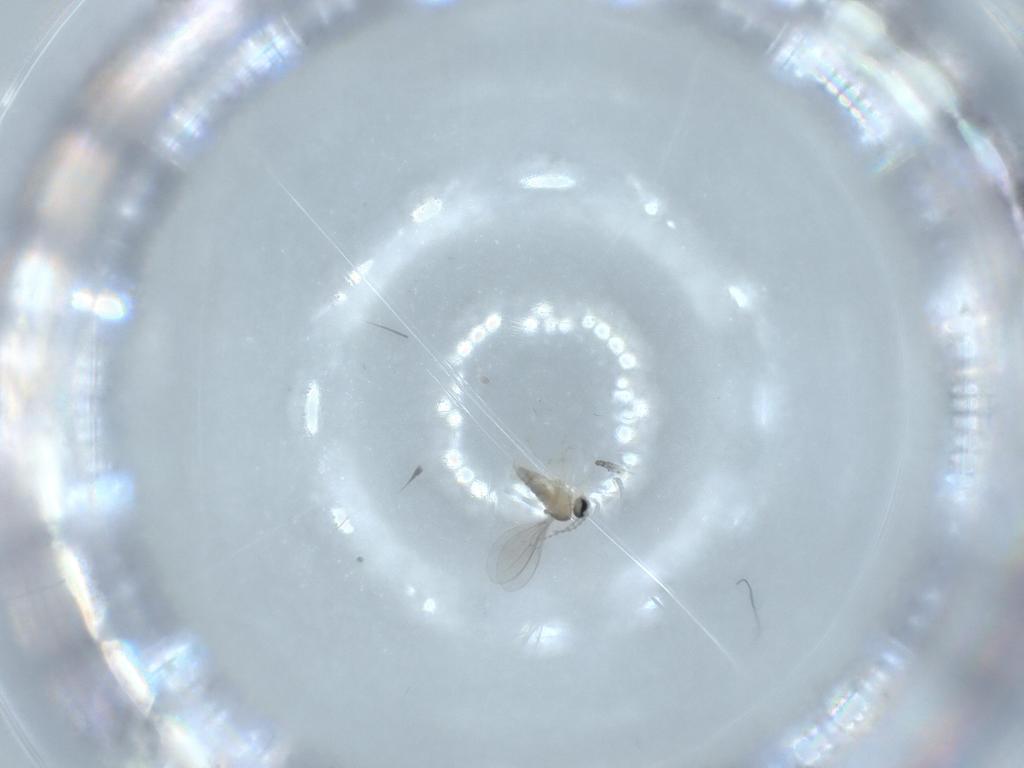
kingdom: Animalia
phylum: Arthropoda
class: Insecta
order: Diptera
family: Cecidomyiidae
